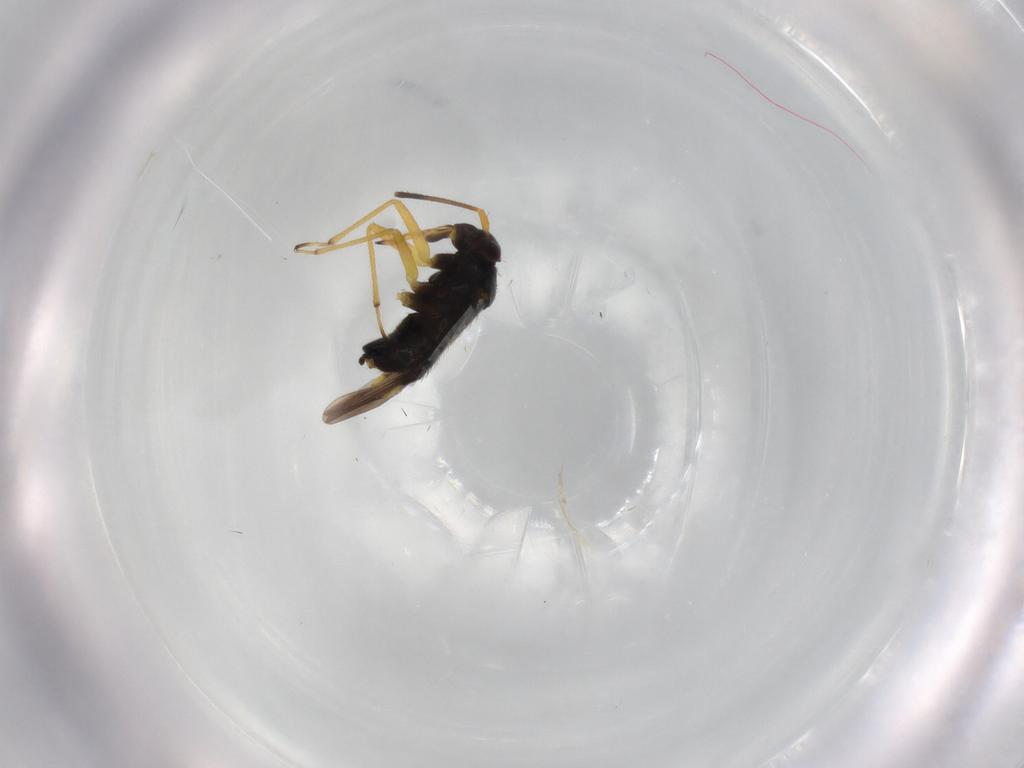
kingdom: Animalia
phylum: Arthropoda
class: Insecta
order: Hemiptera
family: Miridae
